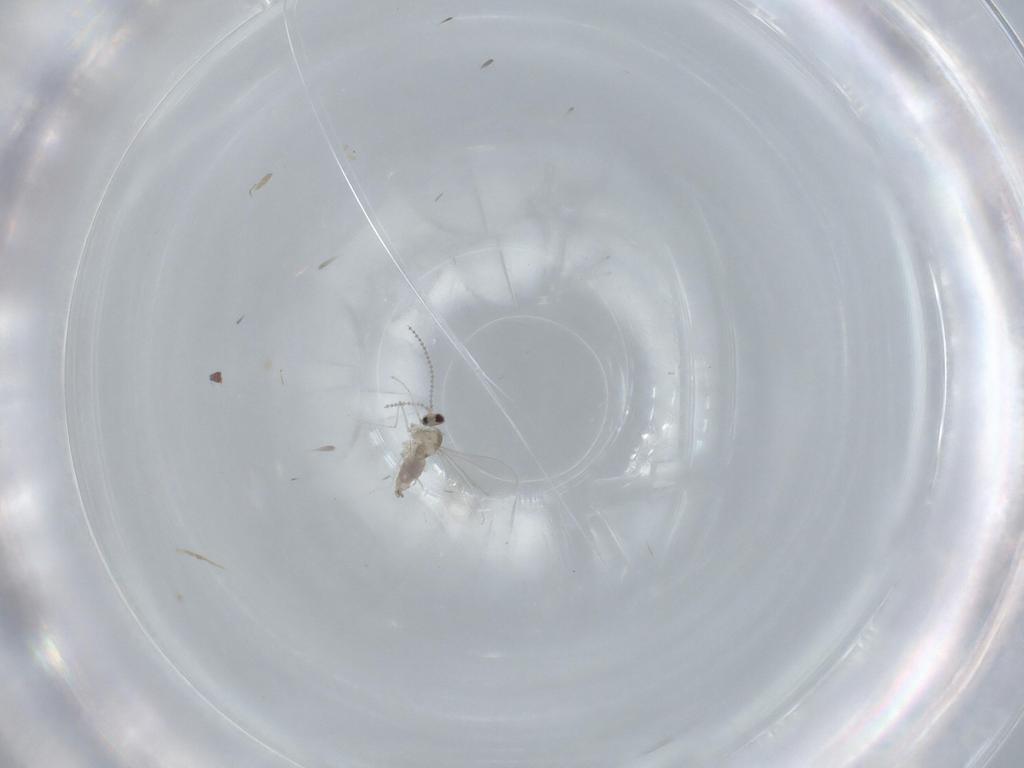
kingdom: Animalia
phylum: Arthropoda
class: Insecta
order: Diptera
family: Cecidomyiidae
